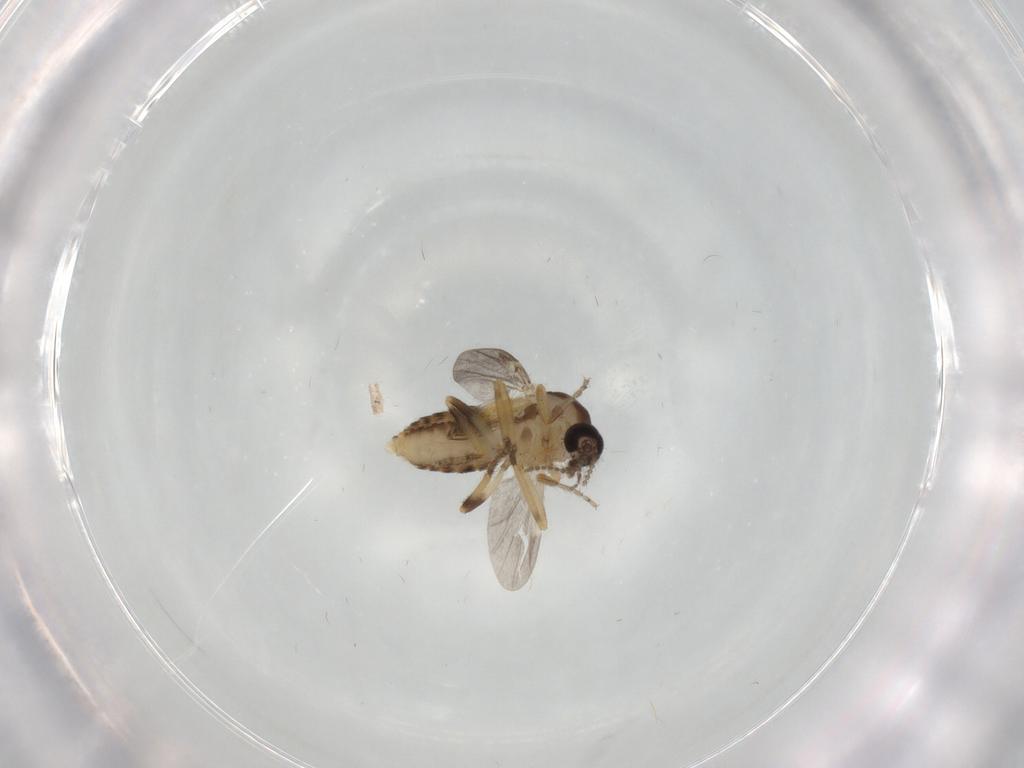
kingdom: Animalia
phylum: Arthropoda
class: Insecta
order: Diptera
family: Ceratopogonidae
